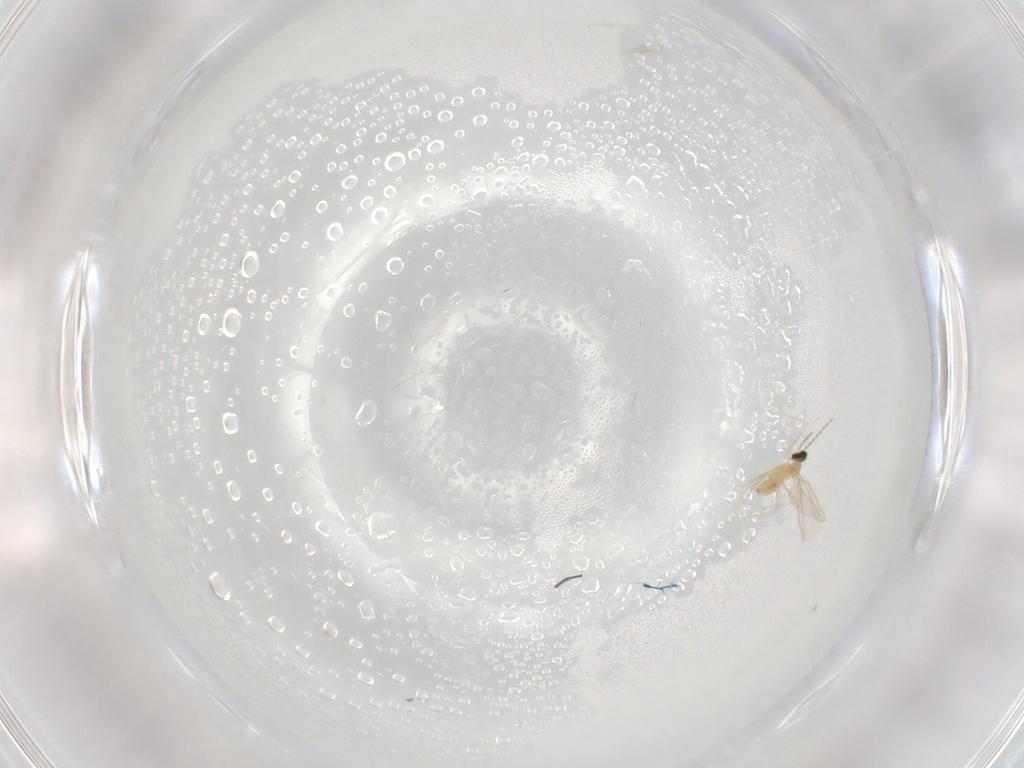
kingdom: Animalia
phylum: Arthropoda
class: Insecta
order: Diptera
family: Cecidomyiidae
